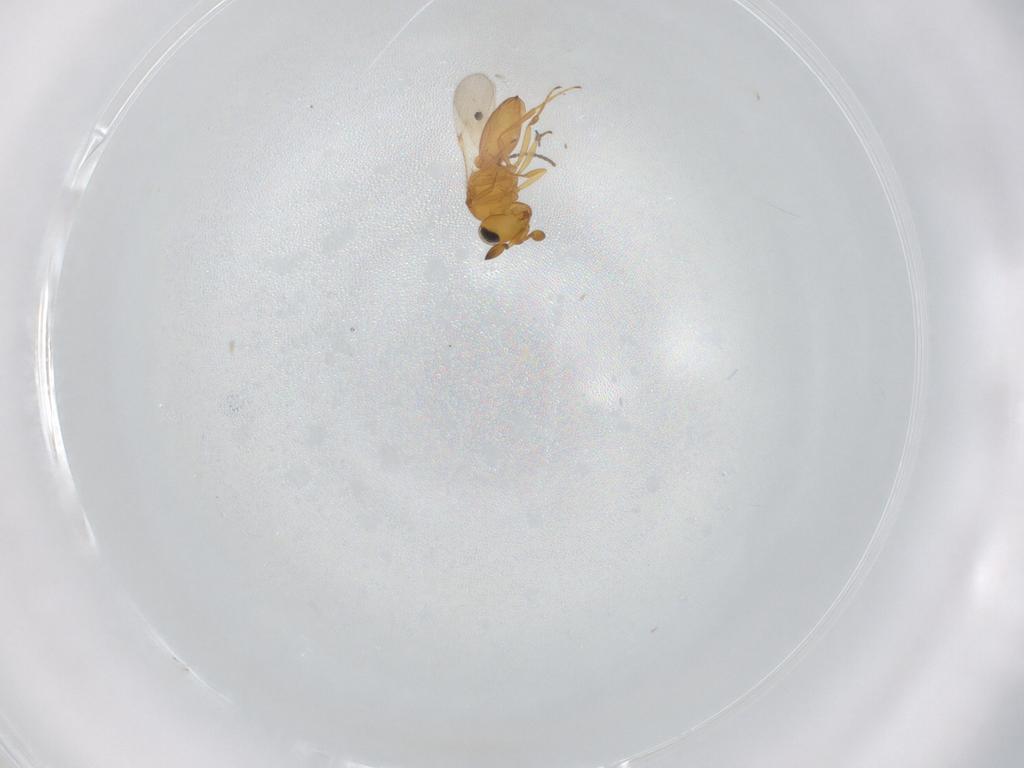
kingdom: Animalia
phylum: Arthropoda
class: Insecta
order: Hymenoptera
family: Scelionidae
